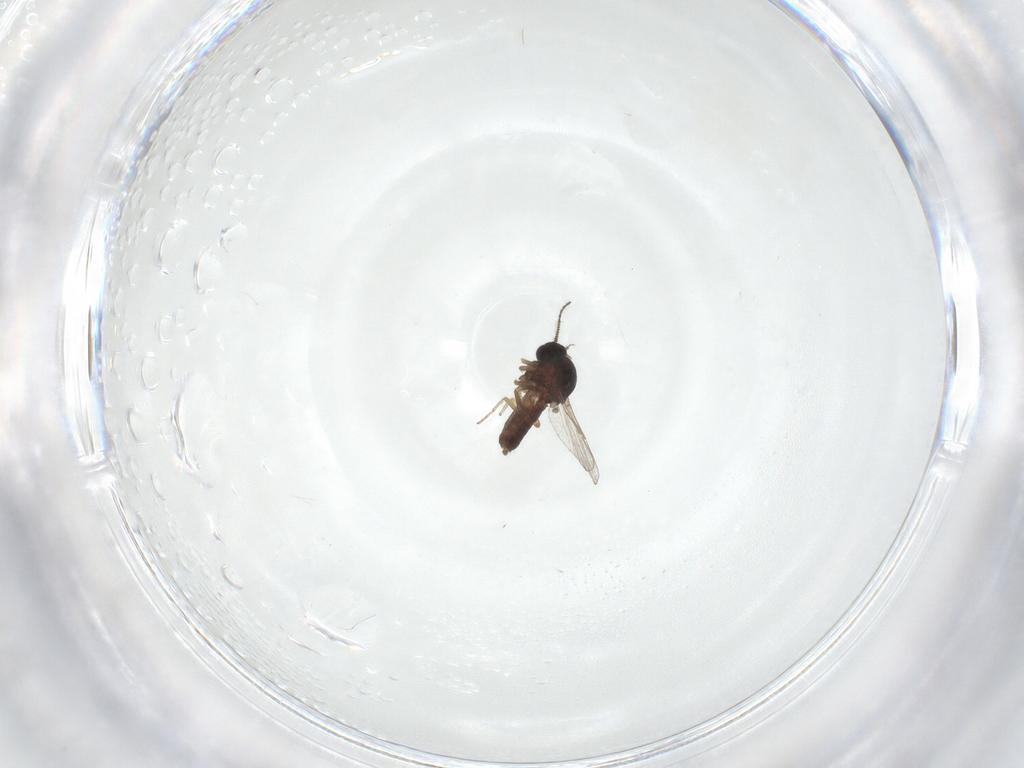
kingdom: Animalia
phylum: Arthropoda
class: Insecta
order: Diptera
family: Ceratopogonidae
